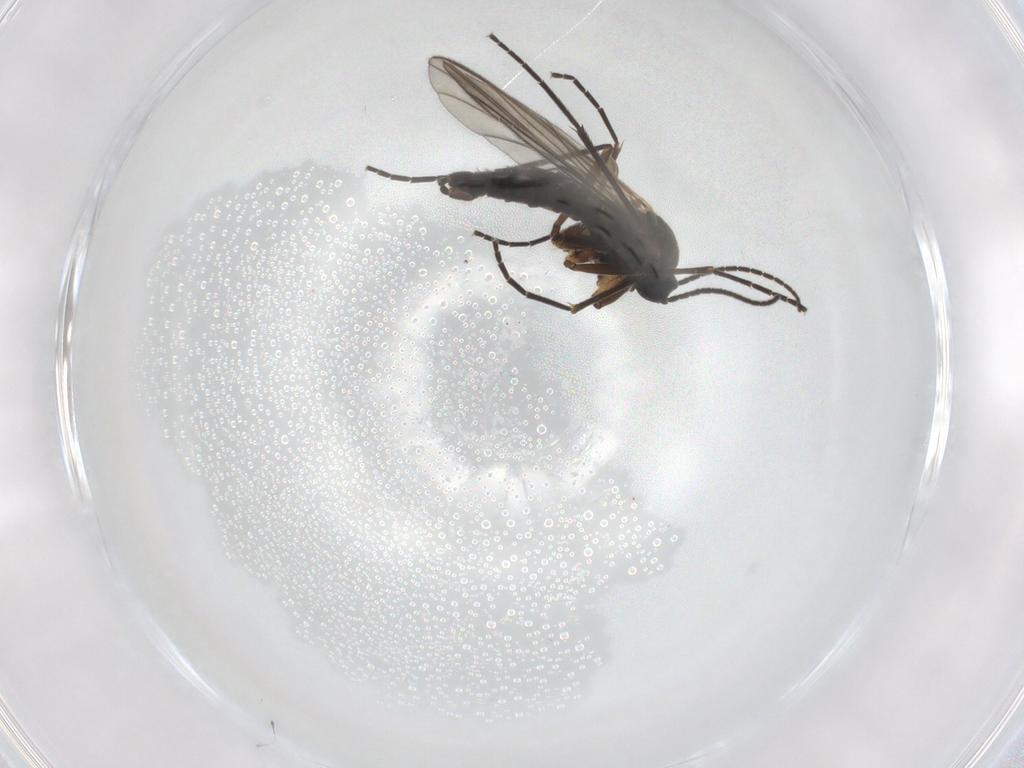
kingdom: Animalia
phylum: Arthropoda
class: Insecta
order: Diptera
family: Sciaridae
